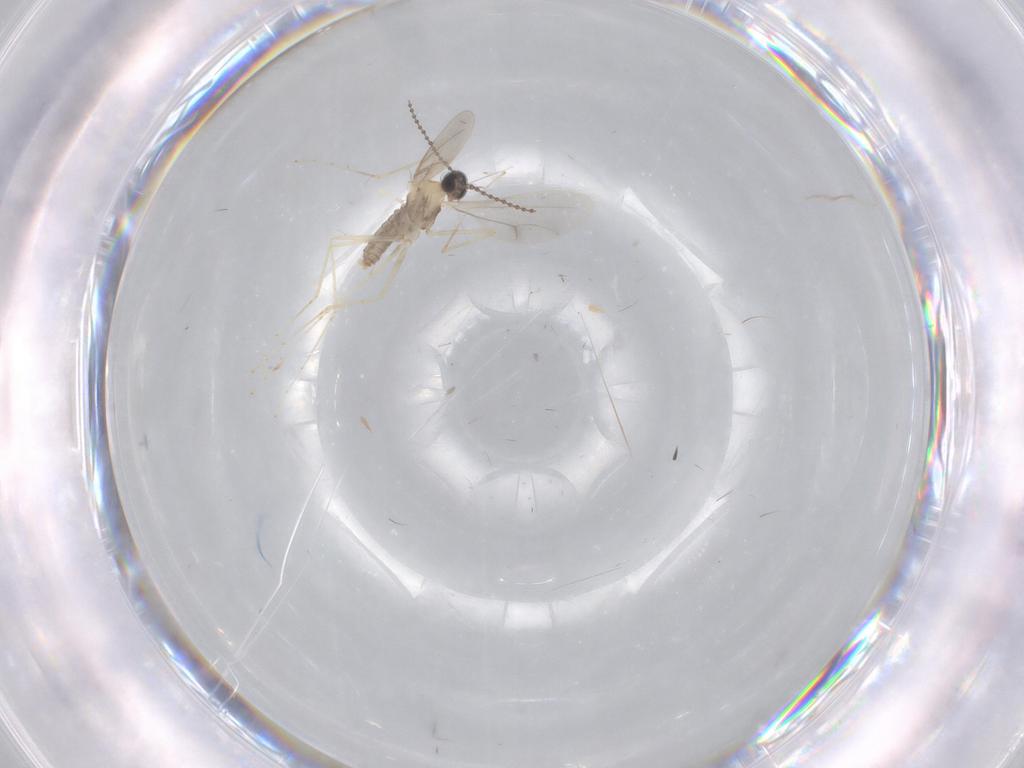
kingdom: Animalia
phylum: Arthropoda
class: Insecta
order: Diptera
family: Cecidomyiidae
